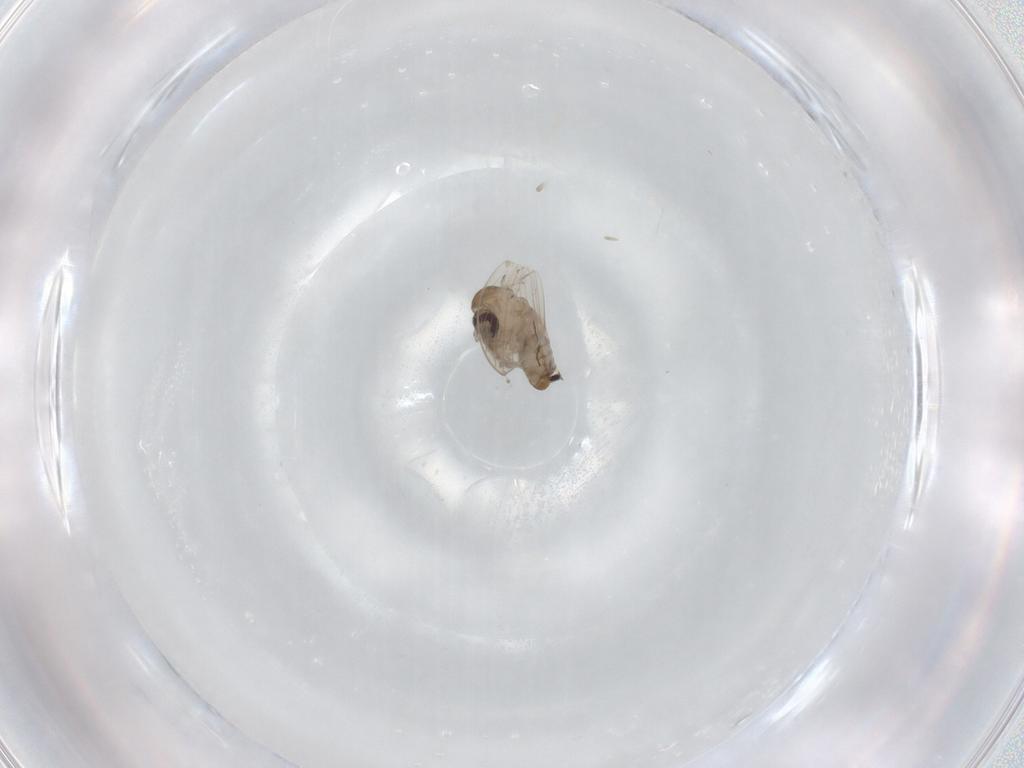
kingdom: Animalia
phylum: Arthropoda
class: Insecta
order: Diptera
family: Psychodidae
